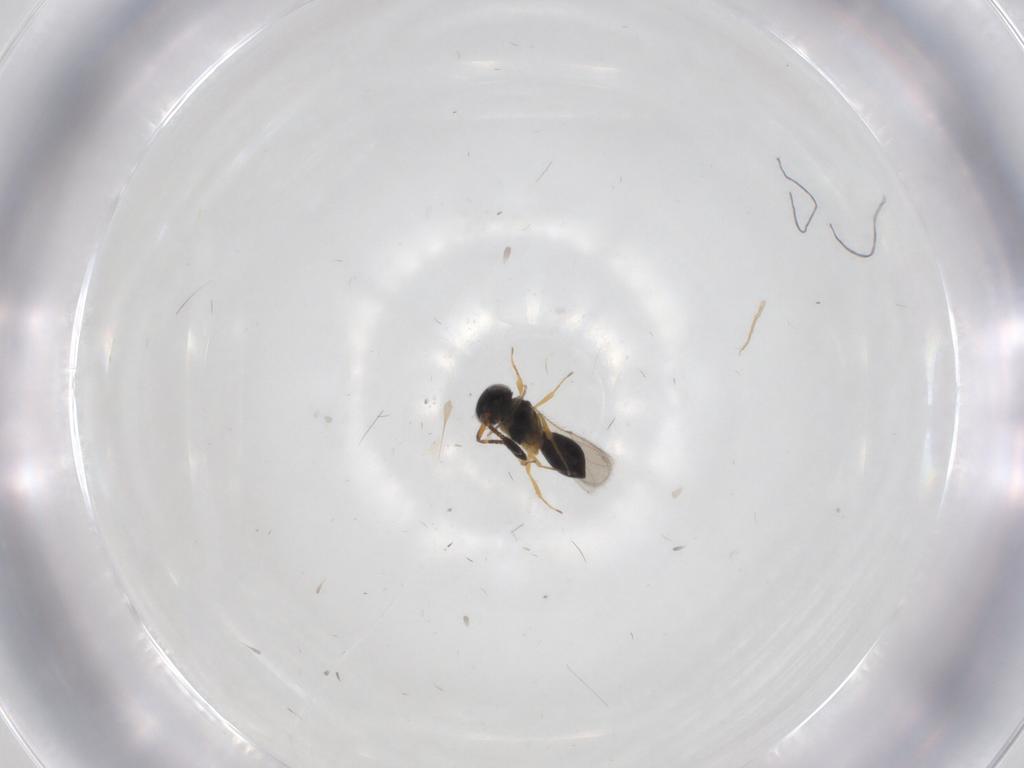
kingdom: Animalia
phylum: Arthropoda
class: Insecta
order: Hymenoptera
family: Scelionidae
